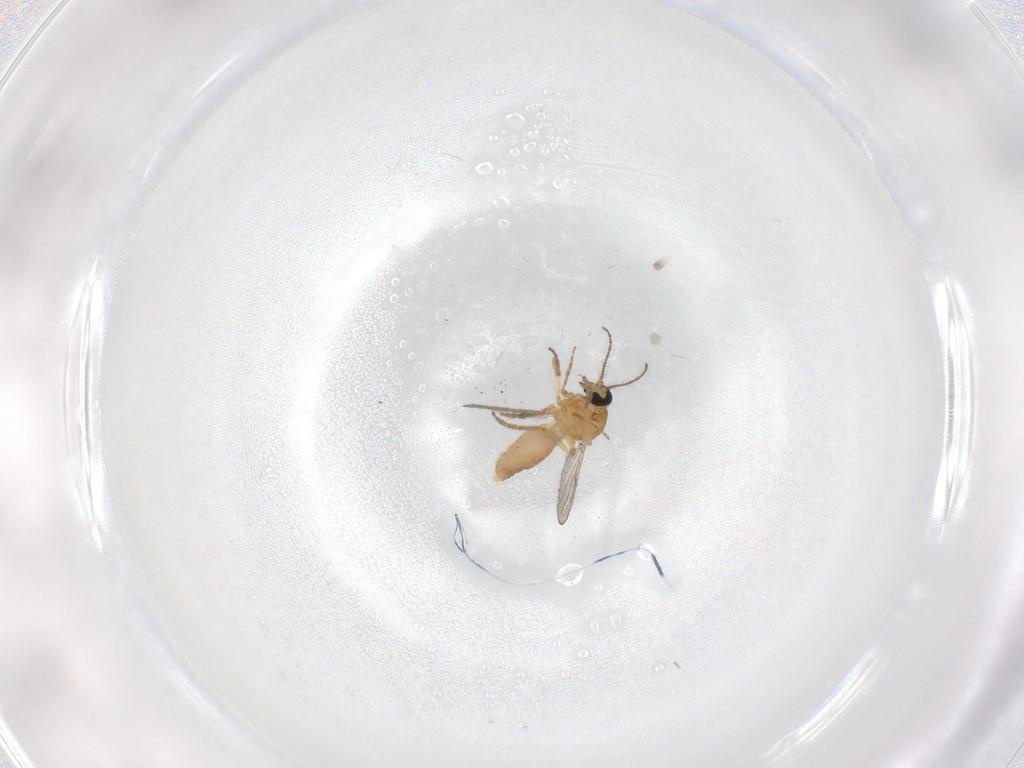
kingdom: Animalia
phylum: Arthropoda
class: Insecta
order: Diptera
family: Ceratopogonidae
